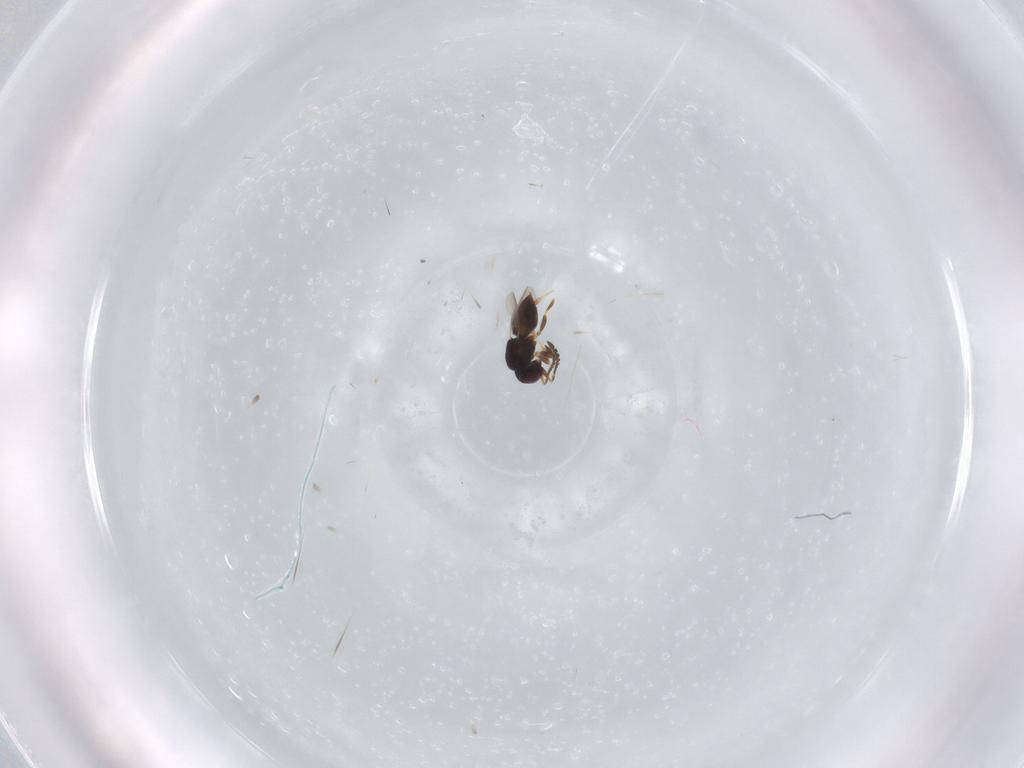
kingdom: Animalia
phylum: Arthropoda
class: Insecta
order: Hymenoptera
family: Ceraphronidae
